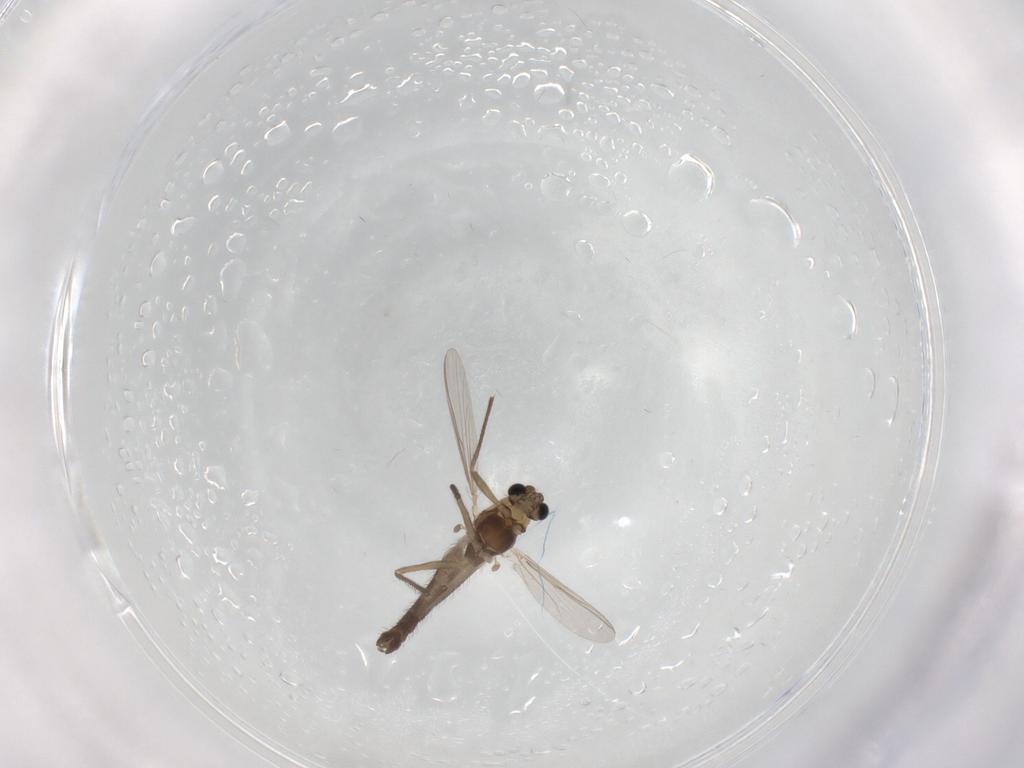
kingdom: Animalia
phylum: Arthropoda
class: Insecta
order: Diptera
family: Chironomidae
